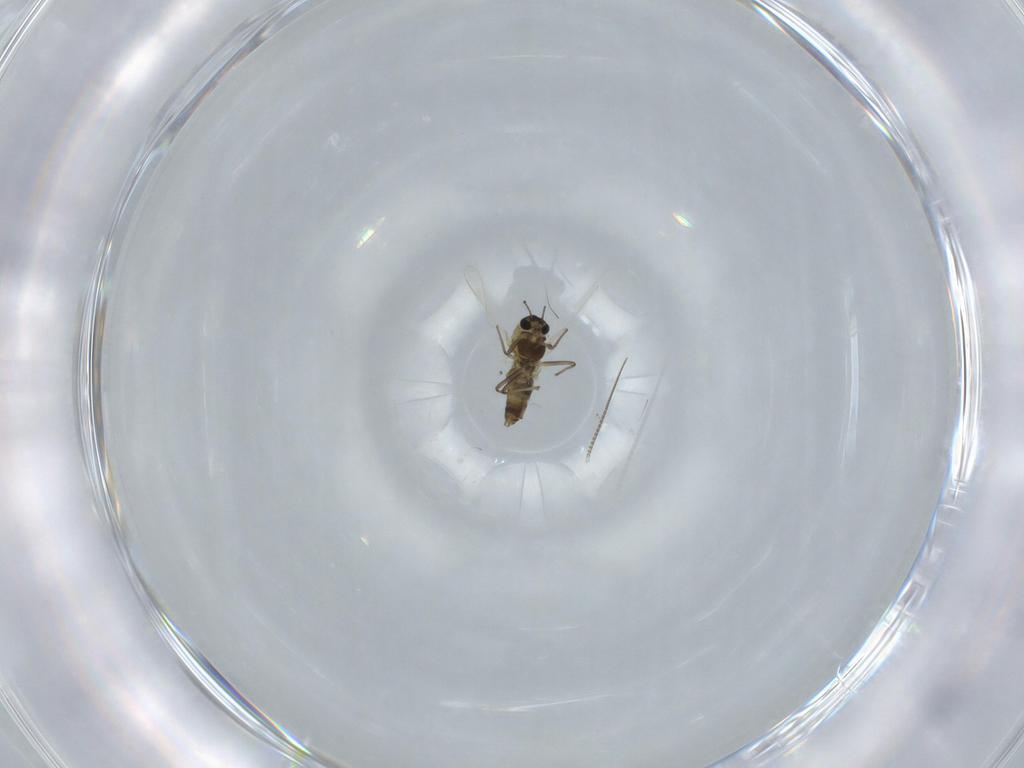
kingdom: Animalia
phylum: Arthropoda
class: Insecta
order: Diptera
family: Chironomidae
